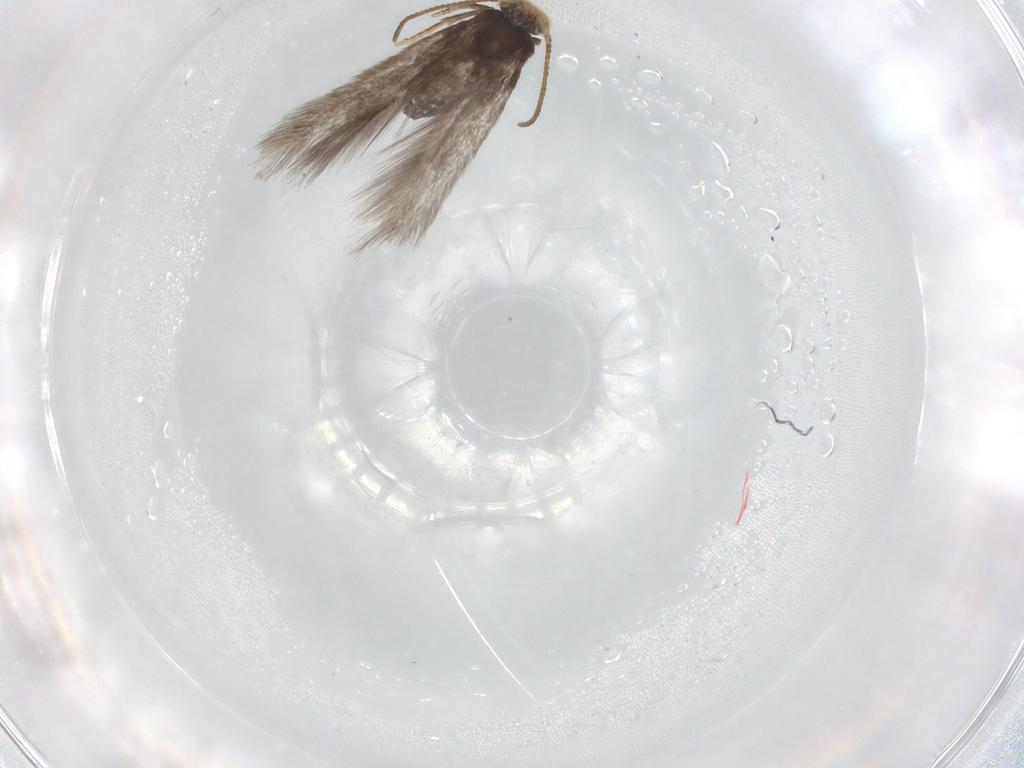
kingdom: Animalia
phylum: Arthropoda
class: Insecta
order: Lepidoptera
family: Nepticulidae
